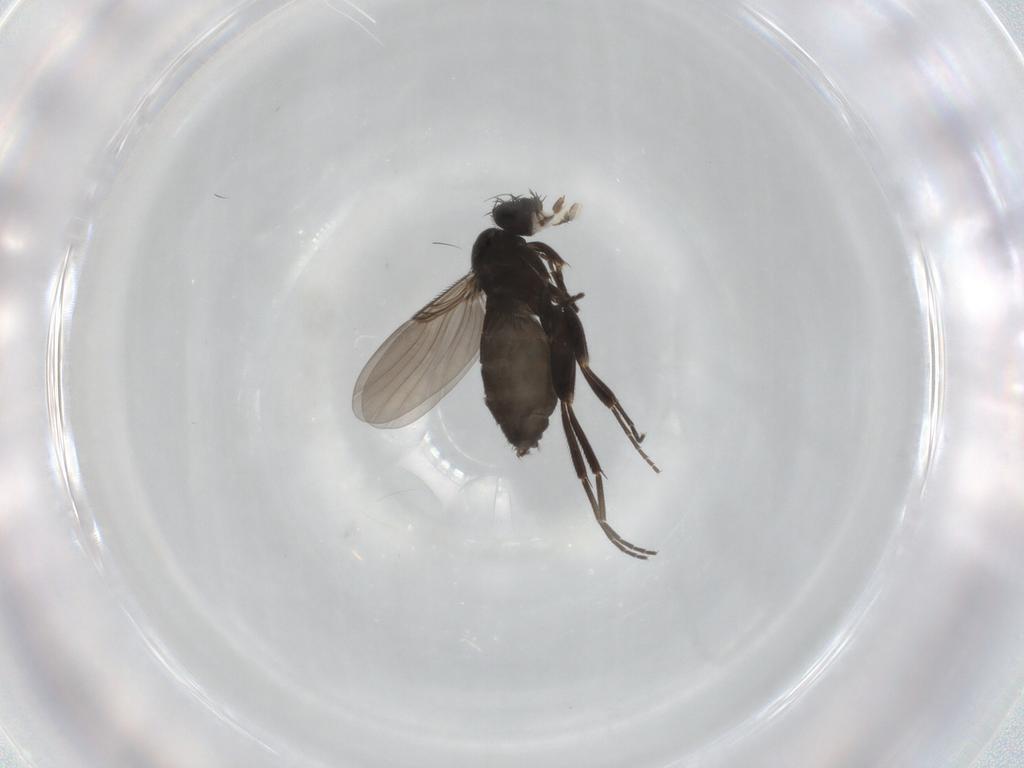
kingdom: Animalia
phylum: Arthropoda
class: Insecta
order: Diptera
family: Phoridae
